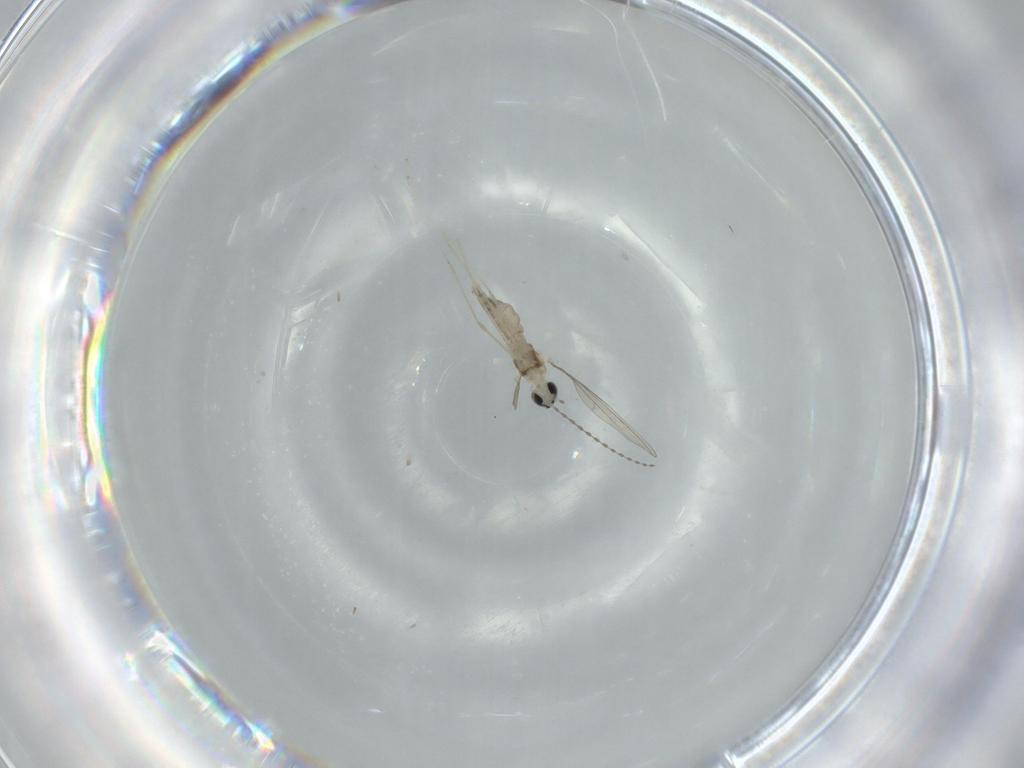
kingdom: Animalia
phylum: Arthropoda
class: Insecta
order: Diptera
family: Cecidomyiidae
